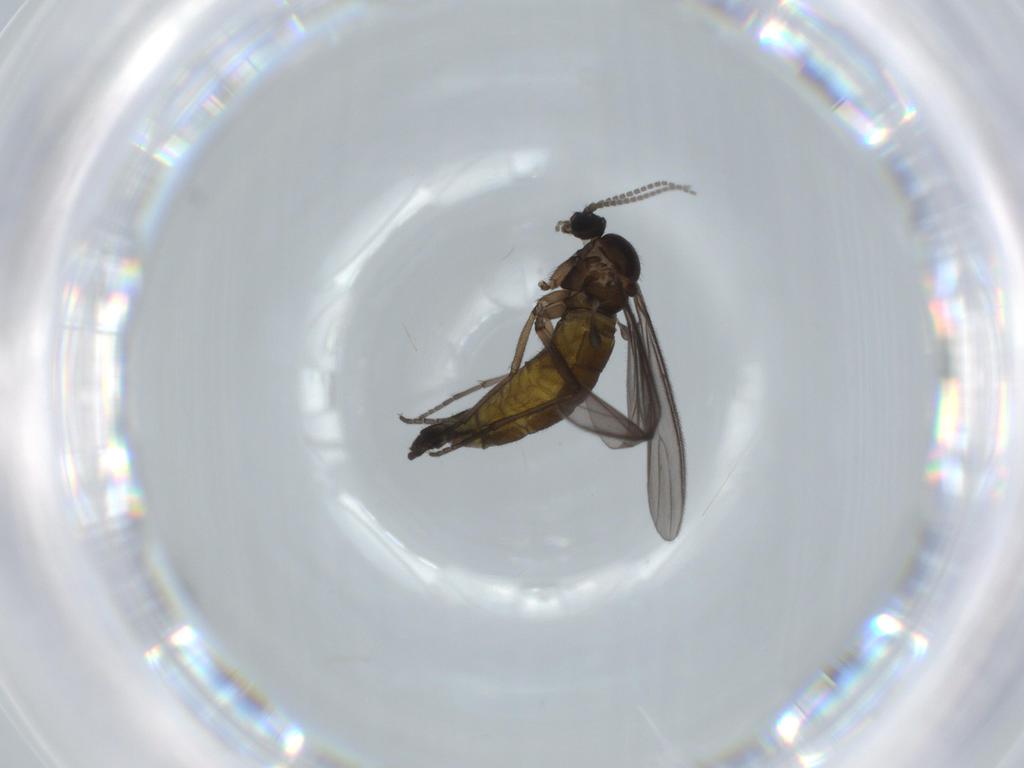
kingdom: Animalia
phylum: Arthropoda
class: Insecta
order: Diptera
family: Sciaridae
